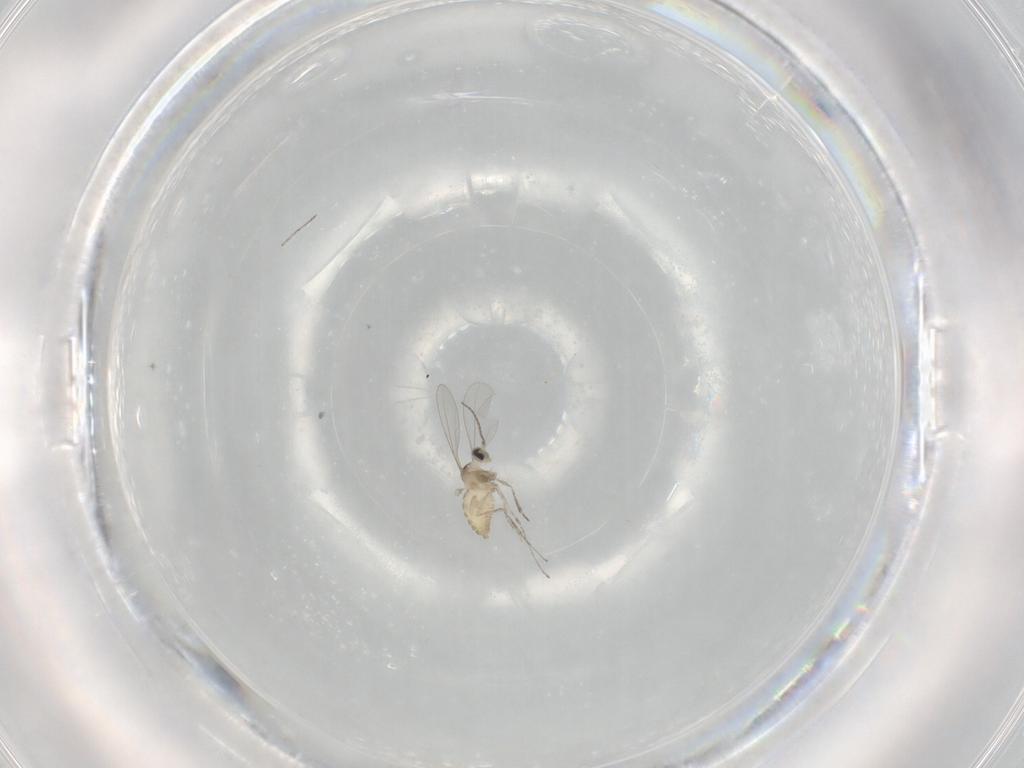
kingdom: Animalia
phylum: Arthropoda
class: Insecta
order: Diptera
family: Cecidomyiidae
